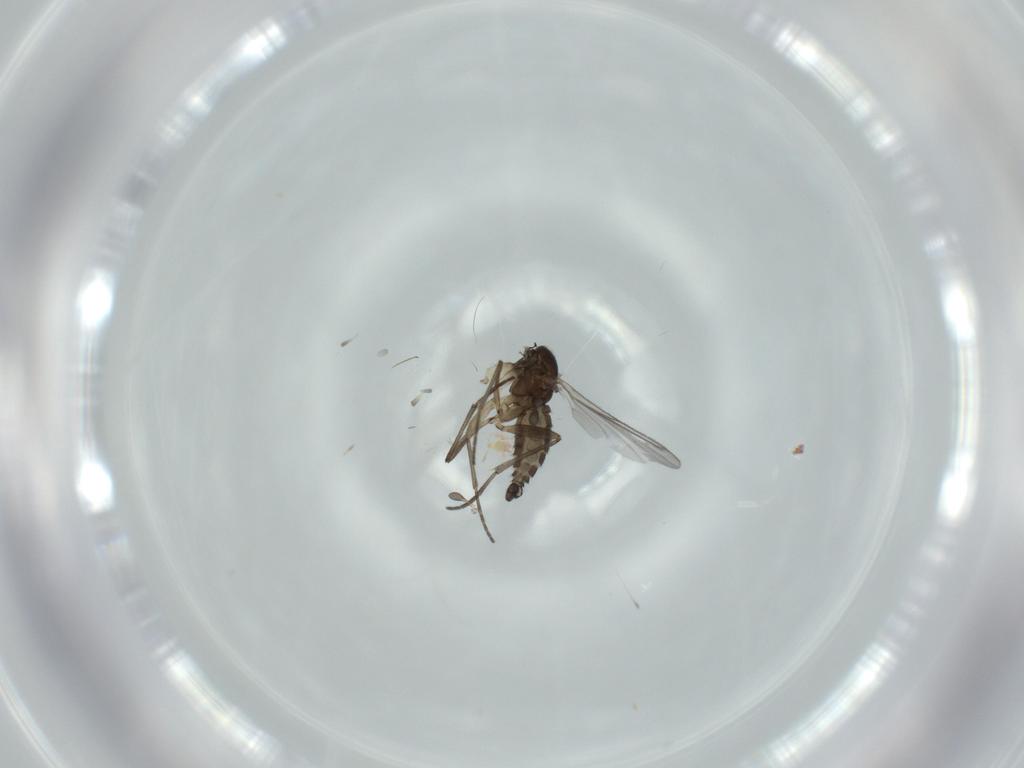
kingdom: Animalia
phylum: Arthropoda
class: Insecta
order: Diptera
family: Sciaridae
